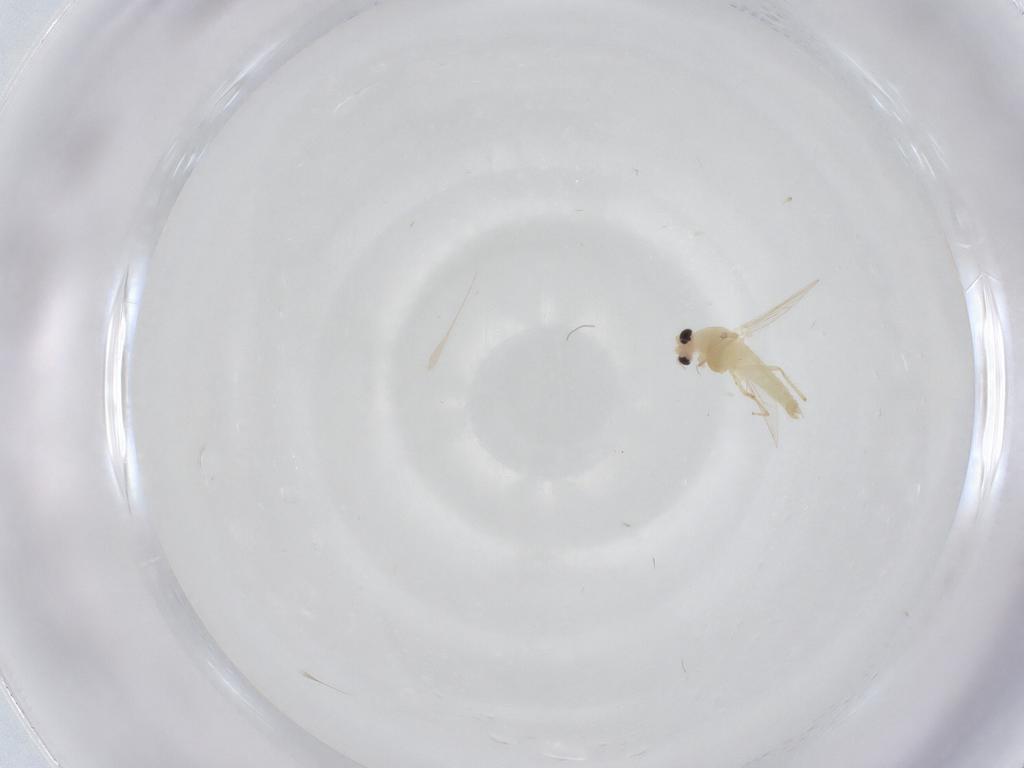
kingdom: Animalia
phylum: Arthropoda
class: Insecta
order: Diptera
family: Chironomidae
